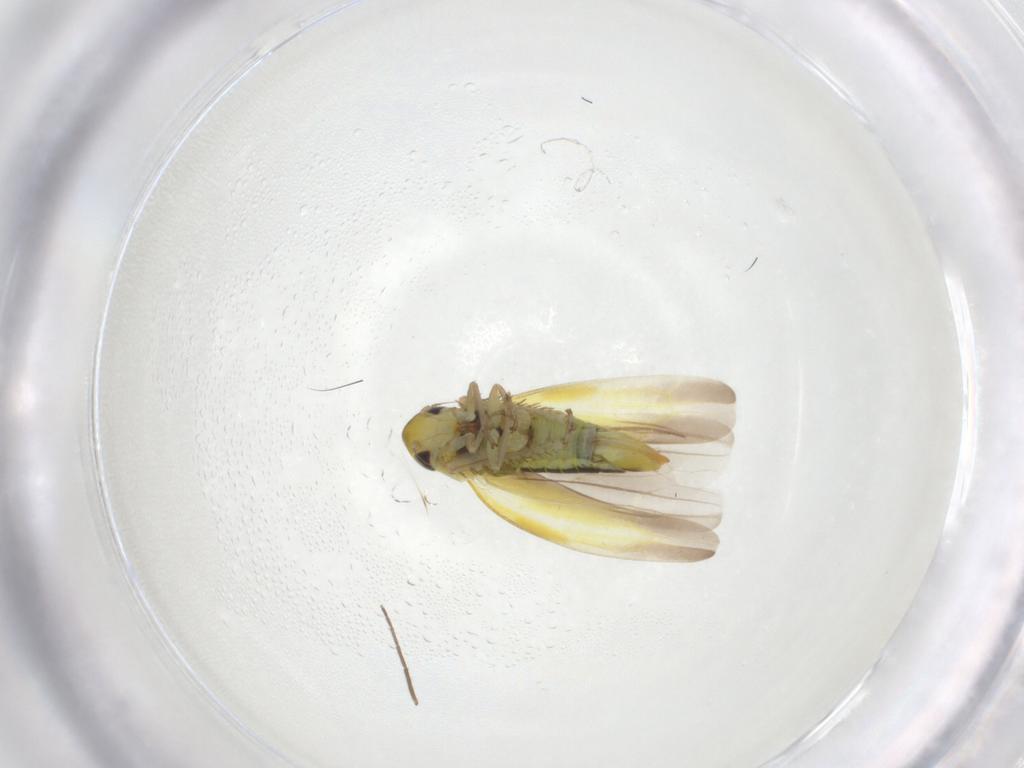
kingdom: Animalia
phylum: Arthropoda
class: Insecta
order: Hemiptera
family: Cicadellidae
